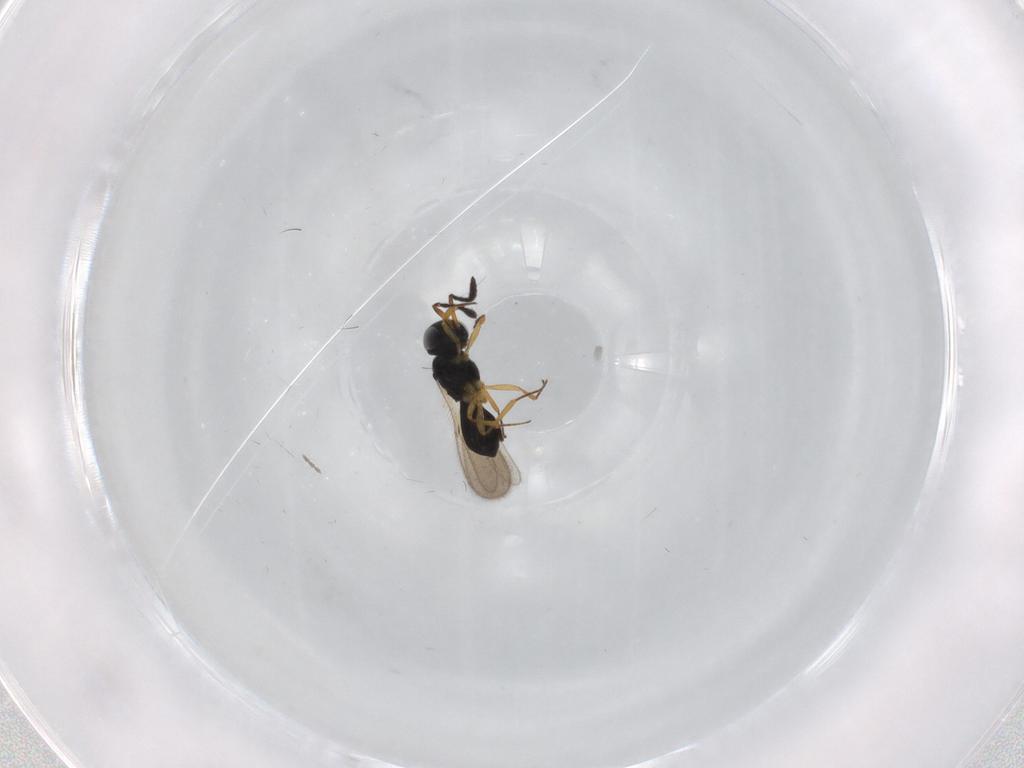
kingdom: Animalia
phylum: Arthropoda
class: Insecta
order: Hymenoptera
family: Scelionidae
